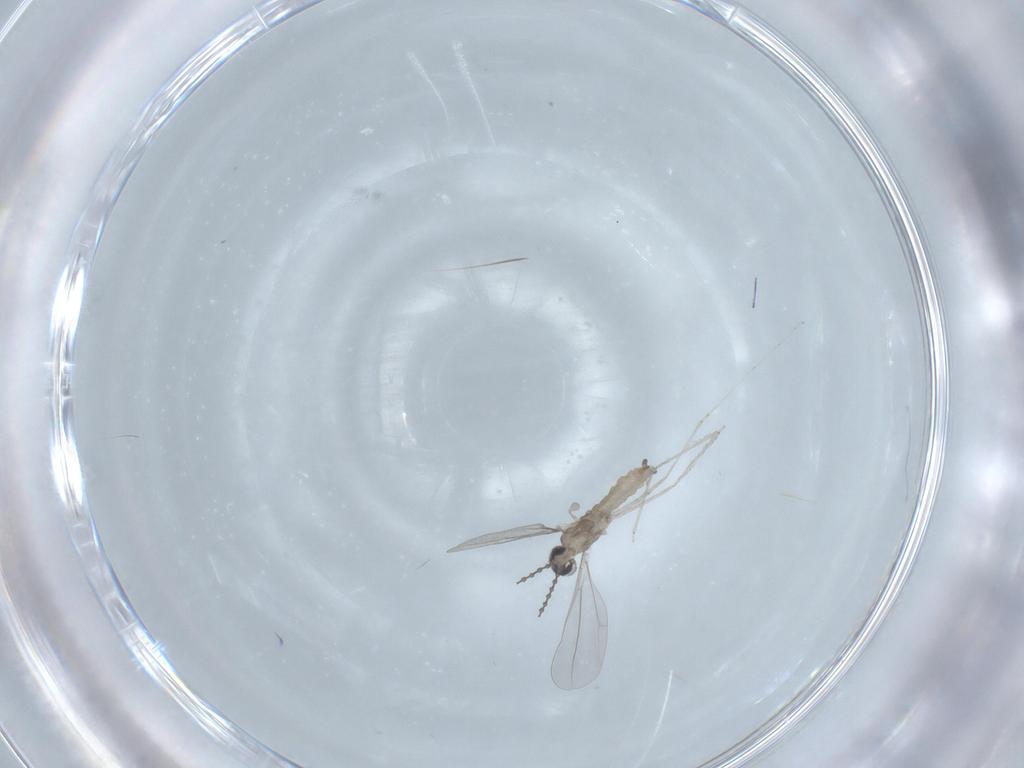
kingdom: Animalia
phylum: Arthropoda
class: Insecta
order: Diptera
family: Cecidomyiidae
